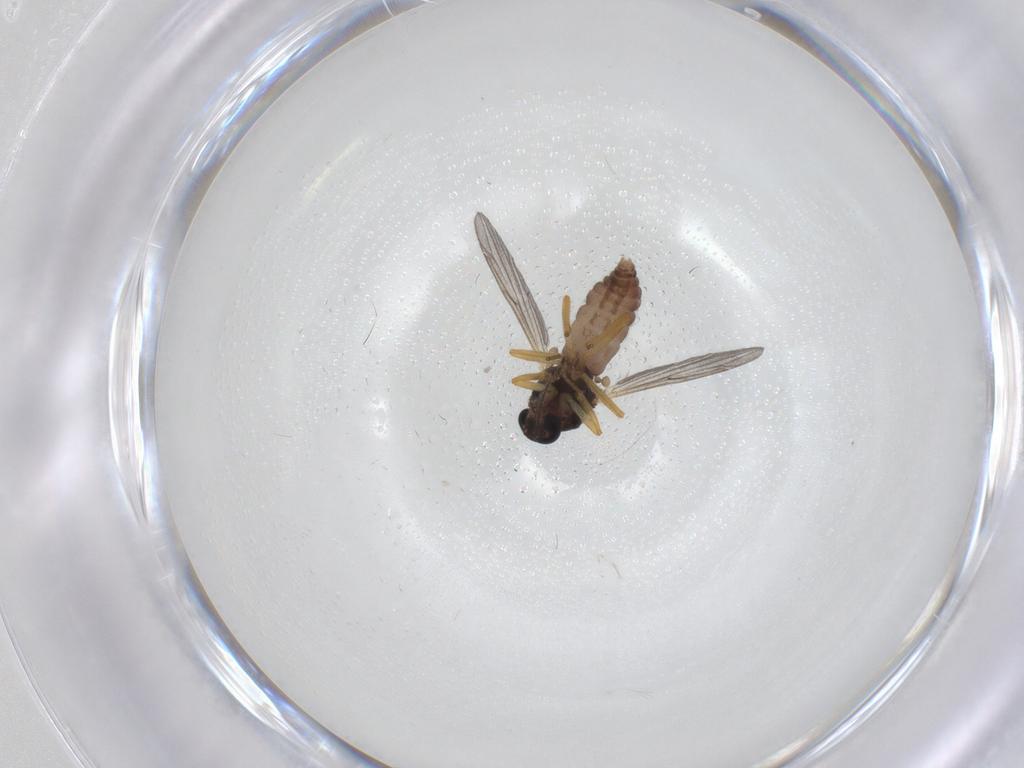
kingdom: Animalia
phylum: Arthropoda
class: Insecta
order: Diptera
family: Ceratopogonidae
